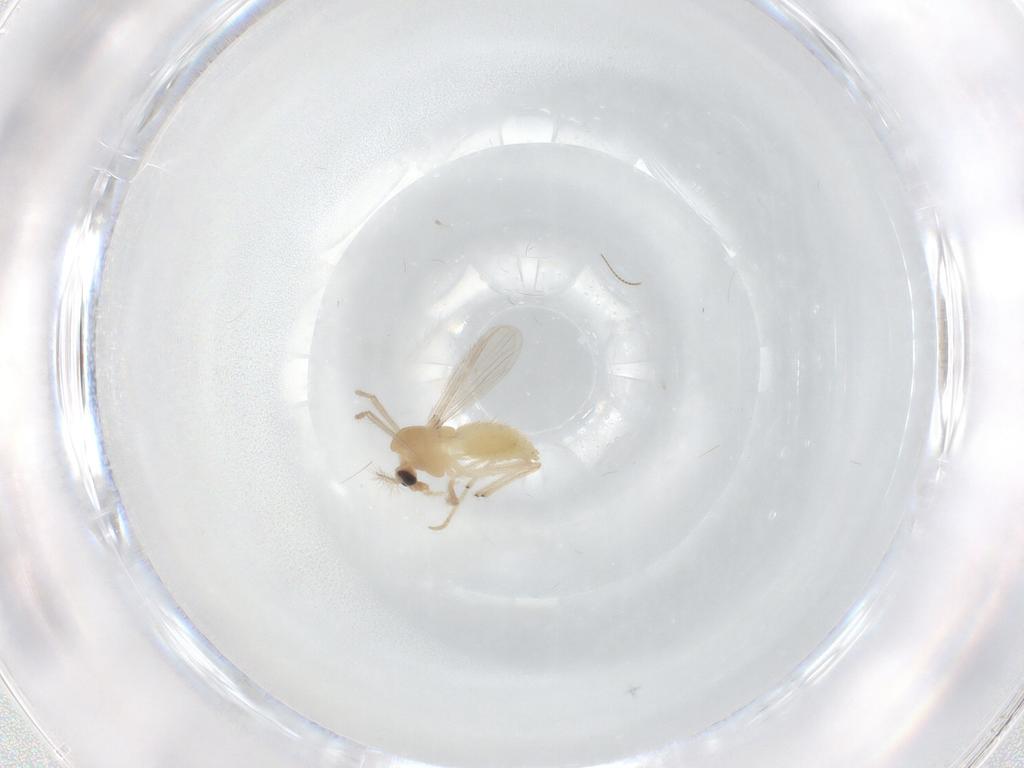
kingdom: Animalia
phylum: Arthropoda
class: Insecta
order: Diptera
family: Chironomidae
